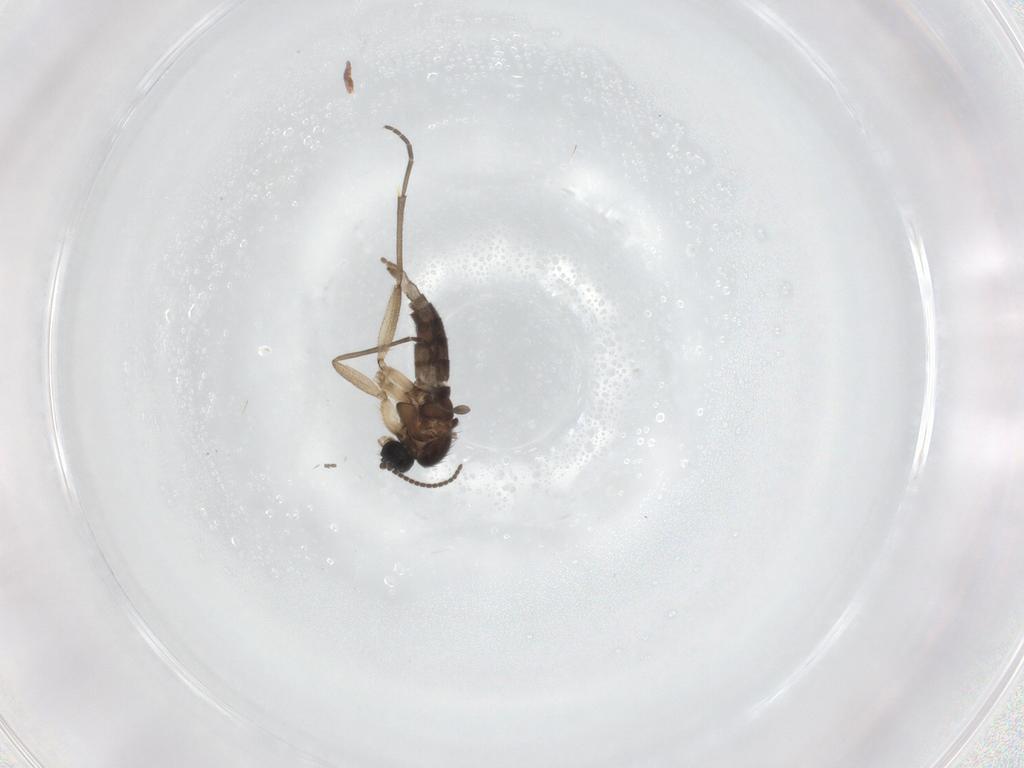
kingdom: Animalia
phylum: Arthropoda
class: Insecta
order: Diptera
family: Sciaridae
